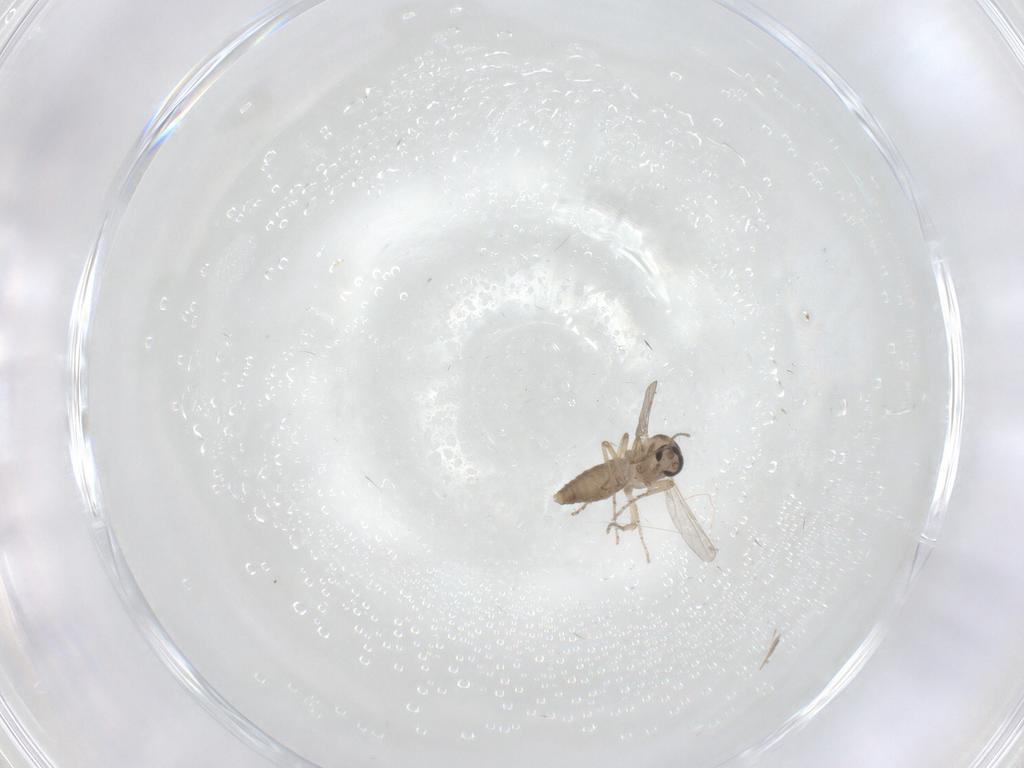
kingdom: Animalia
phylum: Arthropoda
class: Insecta
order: Diptera
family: Ceratopogonidae
